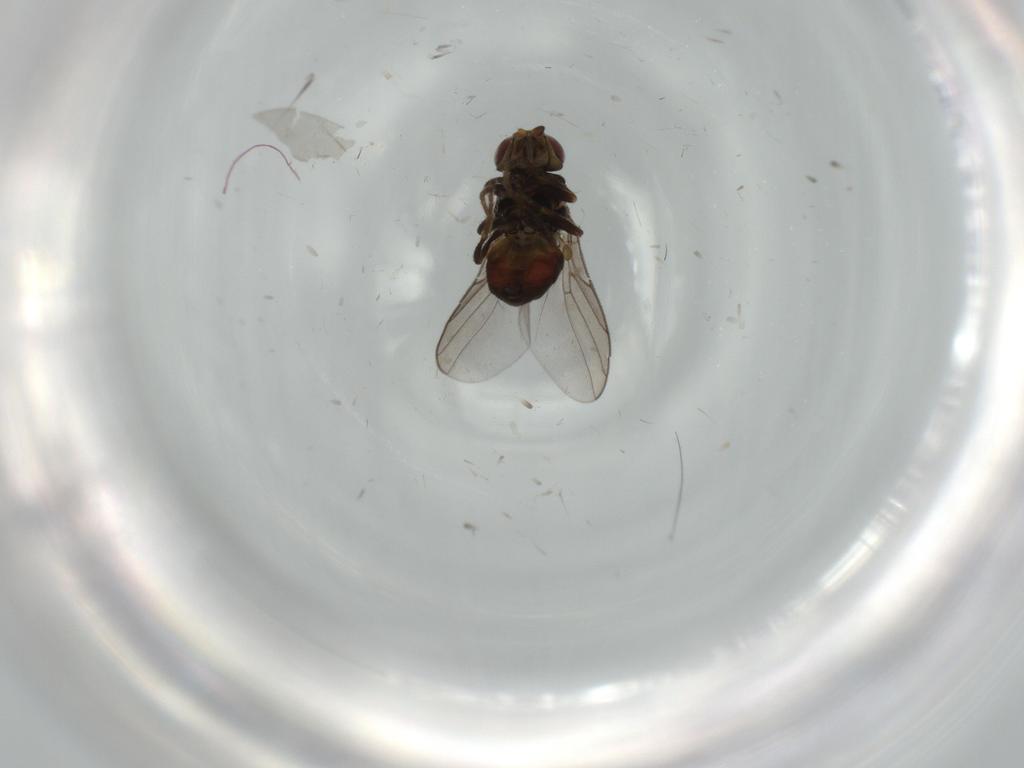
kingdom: Animalia
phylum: Arthropoda
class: Insecta
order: Diptera
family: Chloropidae
